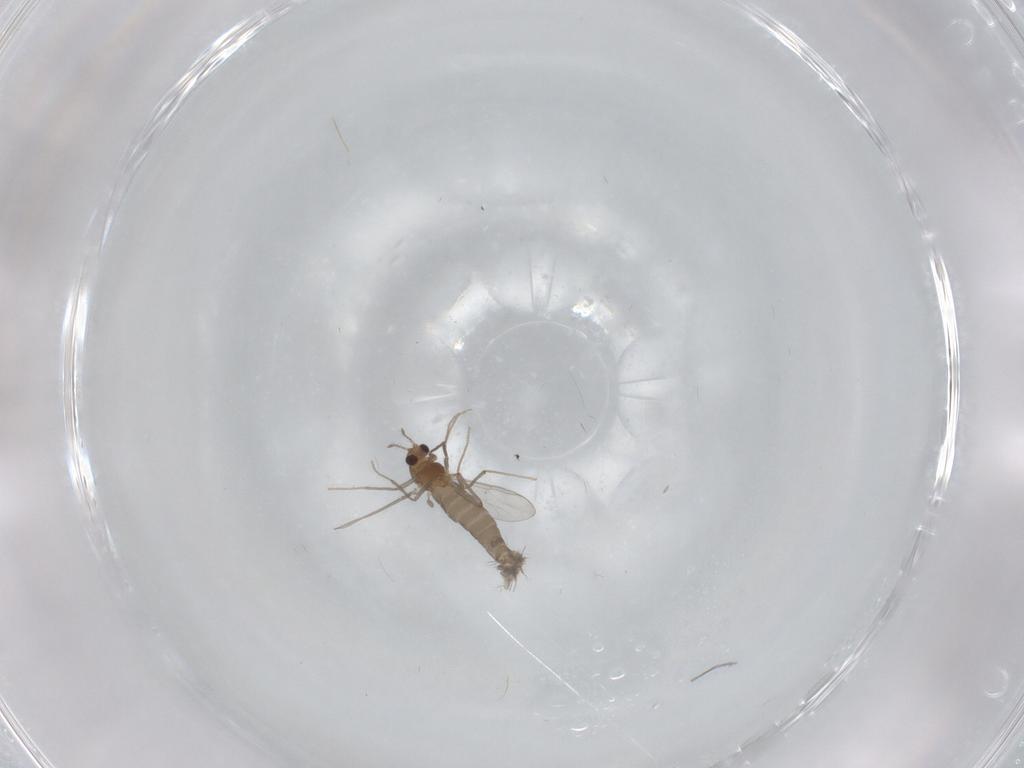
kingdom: Animalia
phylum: Arthropoda
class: Insecta
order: Diptera
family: Chironomidae
